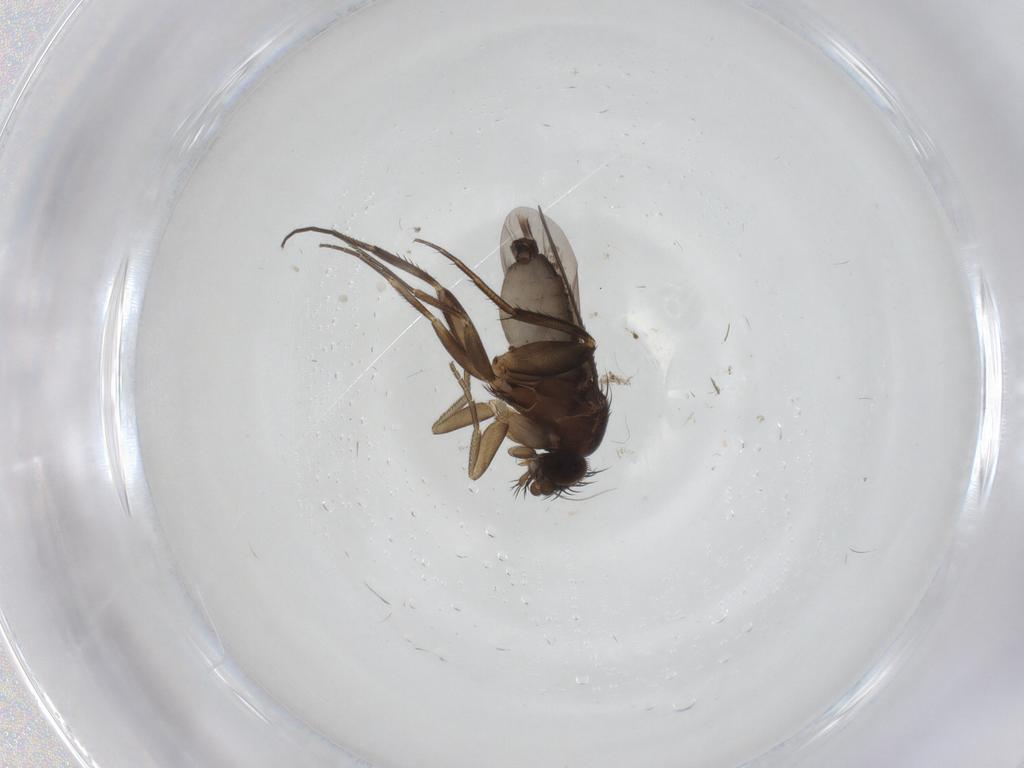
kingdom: Animalia
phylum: Arthropoda
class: Insecta
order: Diptera
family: Phoridae
